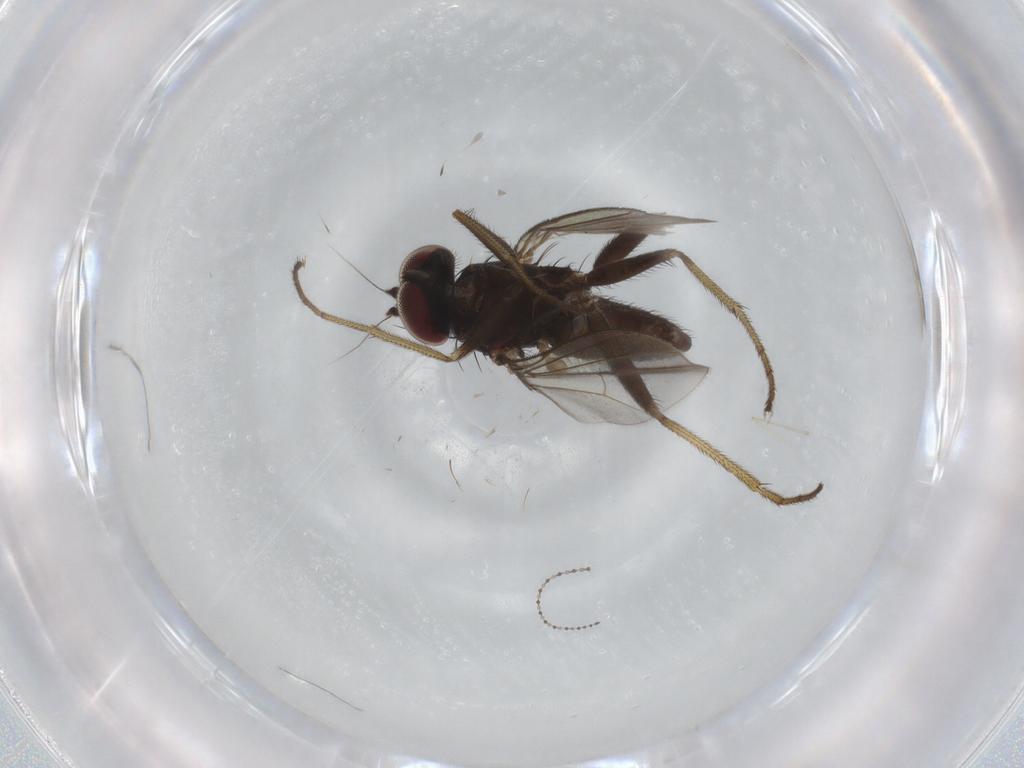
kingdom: Animalia
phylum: Arthropoda
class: Insecta
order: Diptera
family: Dolichopodidae
